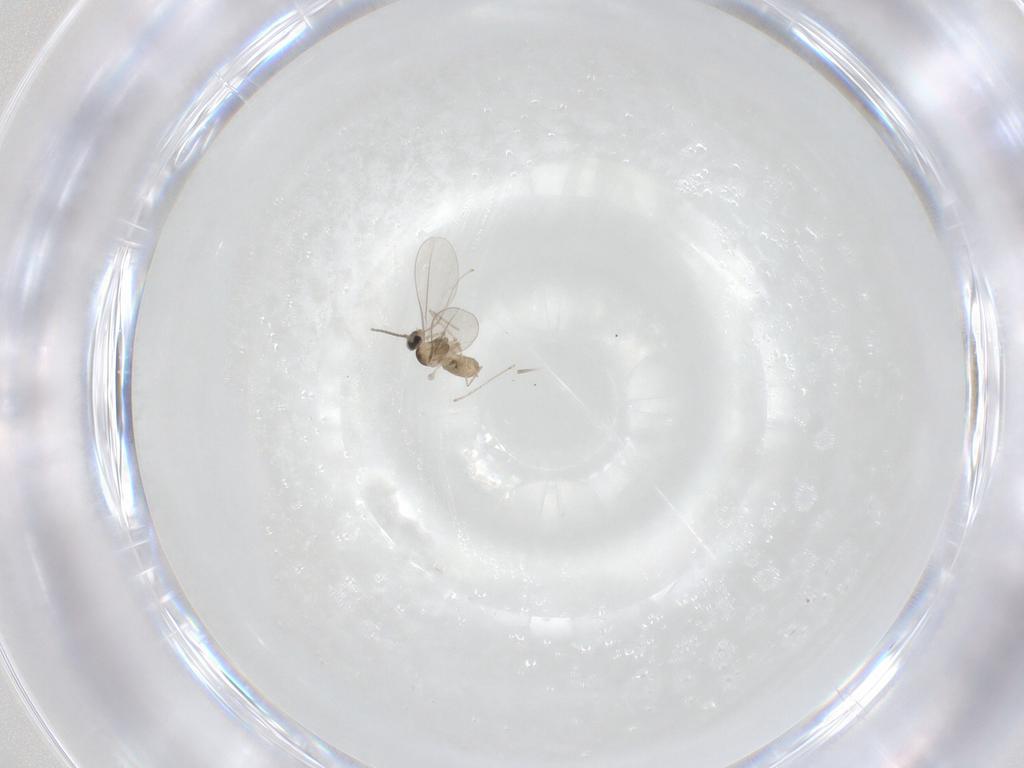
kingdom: Animalia
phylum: Arthropoda
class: Insecta
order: Diptera
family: Cecidomyiidae
